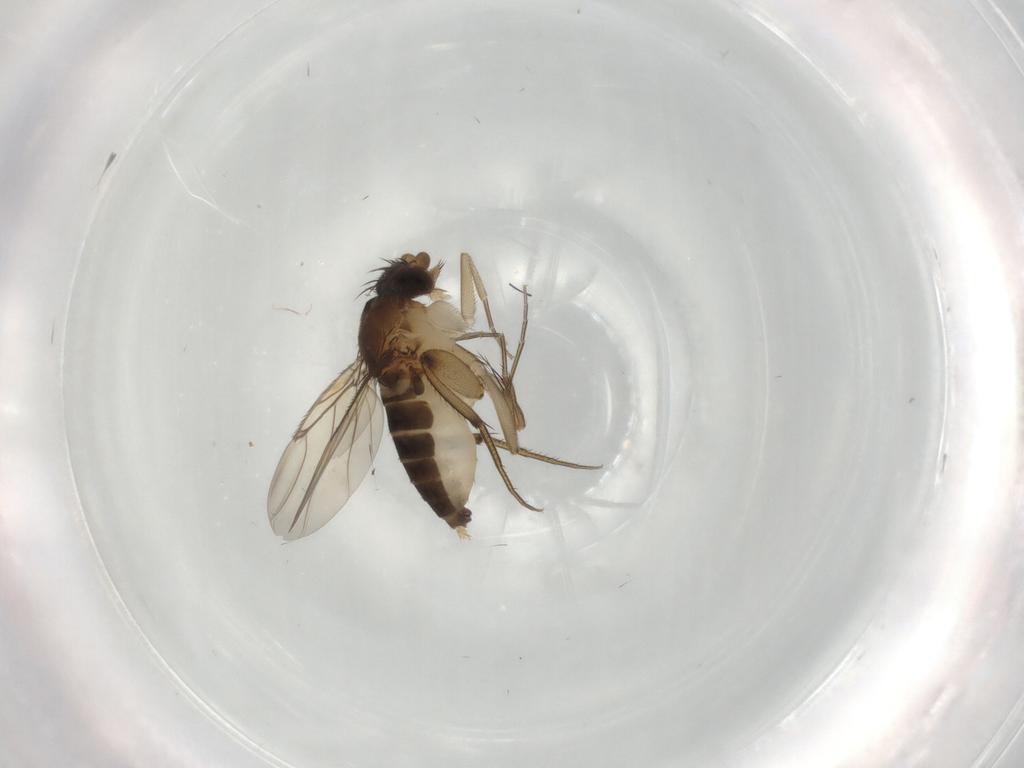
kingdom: Animalia
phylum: Arthropoda
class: Insecta
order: Diptera
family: Phoridae
